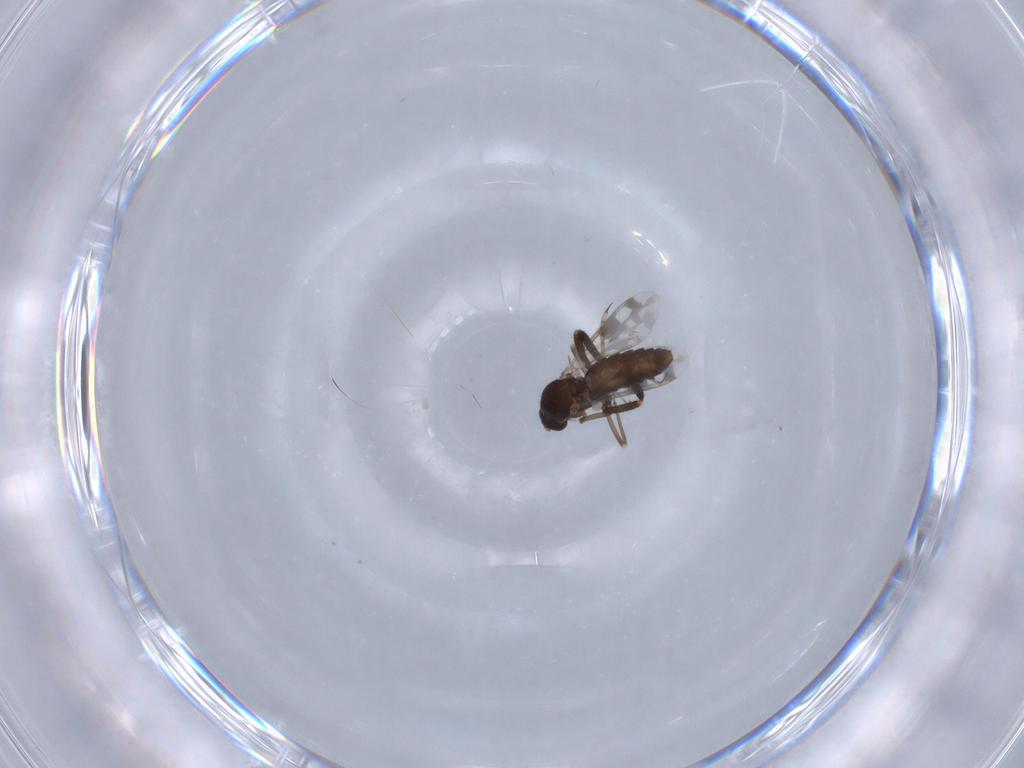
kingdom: Animalia
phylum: Arthropoda
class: Insecta
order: Diptera
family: Ceratopogonidae
